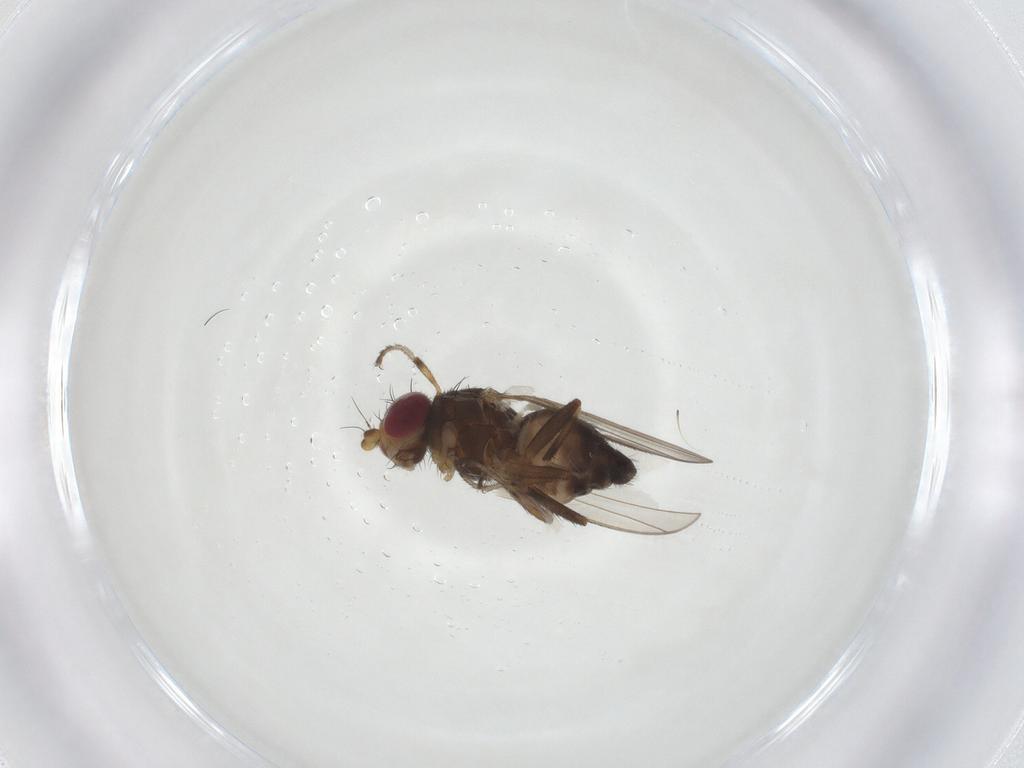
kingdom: Animalia
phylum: Arthropoda
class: Insecta
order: Diptera
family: Heleomyzidae
